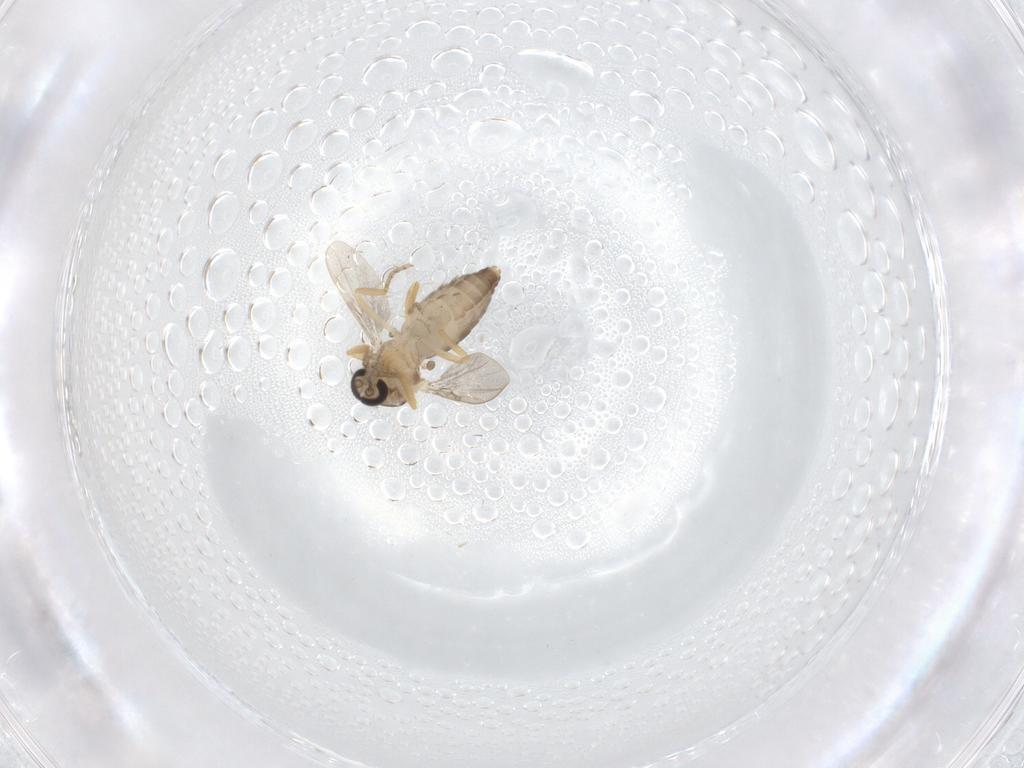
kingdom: Animalia
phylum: Arthropoda
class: Insecta
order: Diptera
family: Ceratopogonidae
